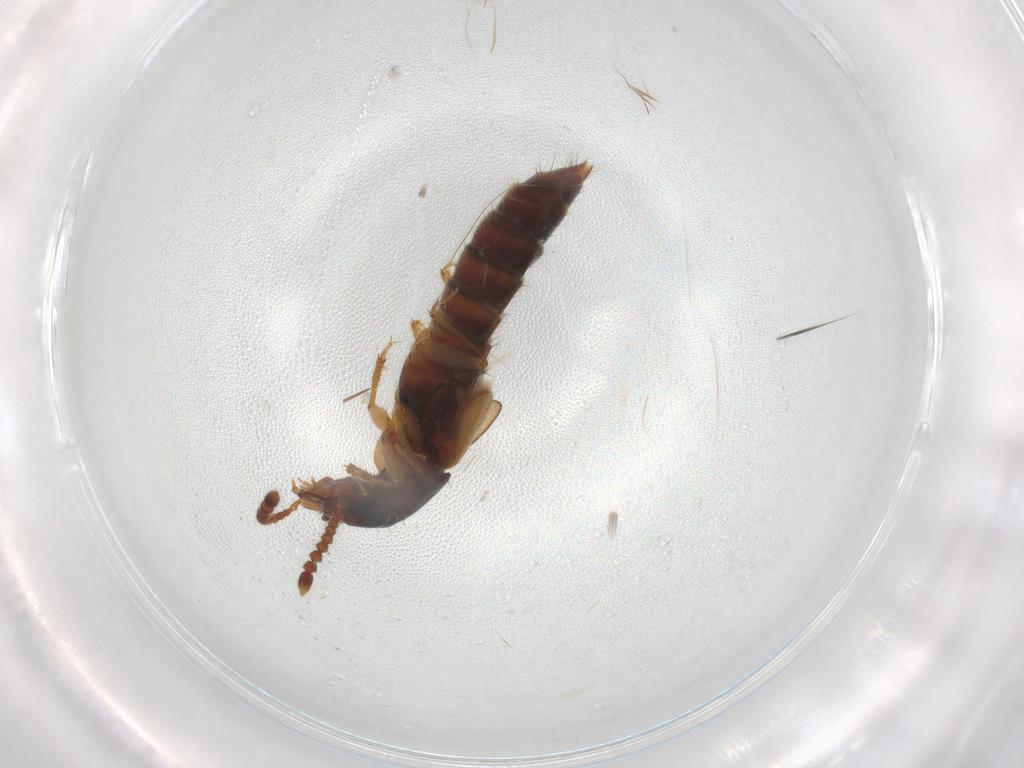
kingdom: Animalia
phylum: Arthropoda
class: Insecta
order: Coleoptera
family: Staphylinidae
